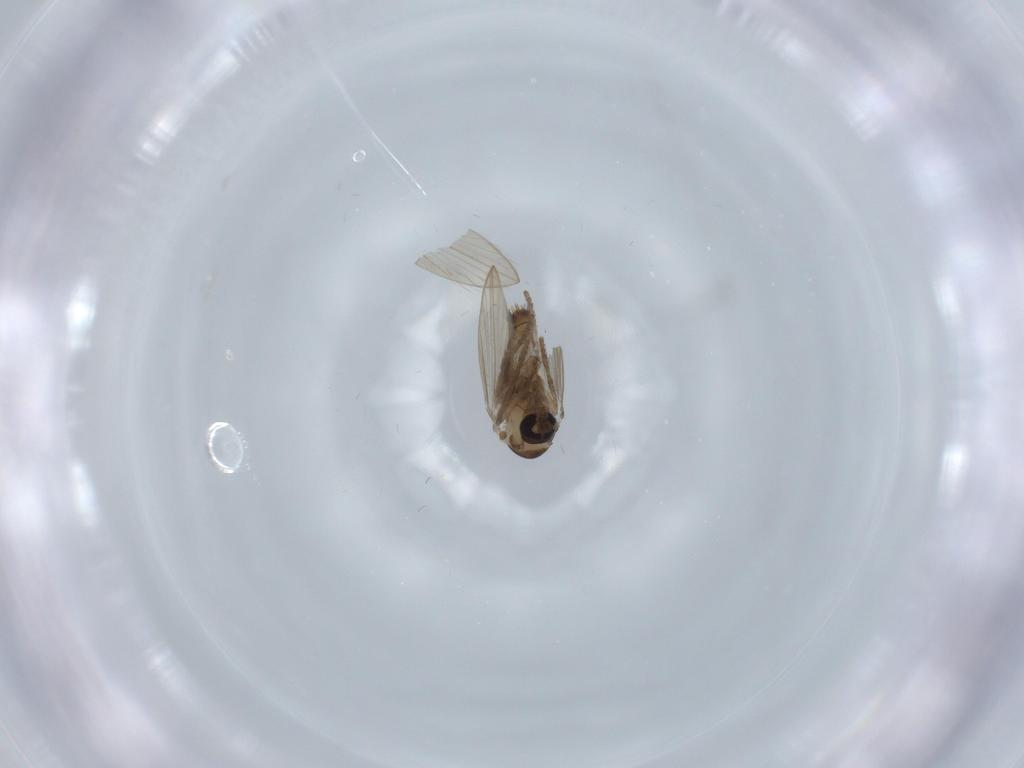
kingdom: Animalia
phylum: Arthropoda
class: Insecta
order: Diptera
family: Psychodidae
